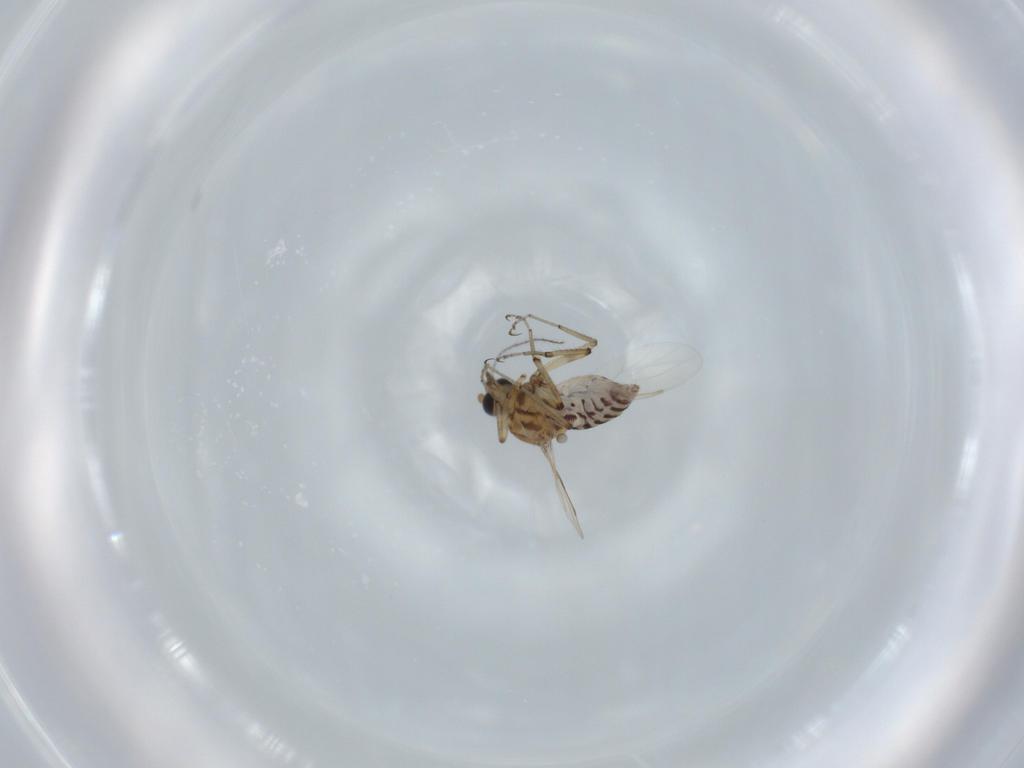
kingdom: Animalia
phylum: Arthropoda
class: Insecta
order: Diptera
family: Ceratopogonidae
